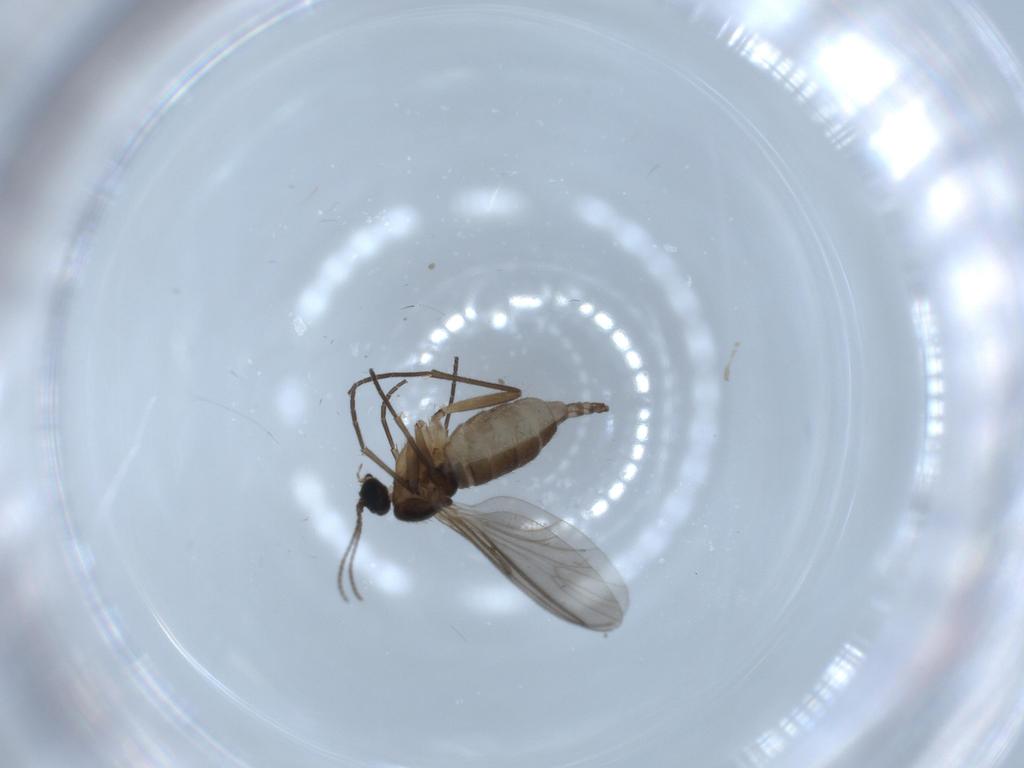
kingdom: Animalia
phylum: Arthropoda
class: Insecta
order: Diptera
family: Sciaridae
